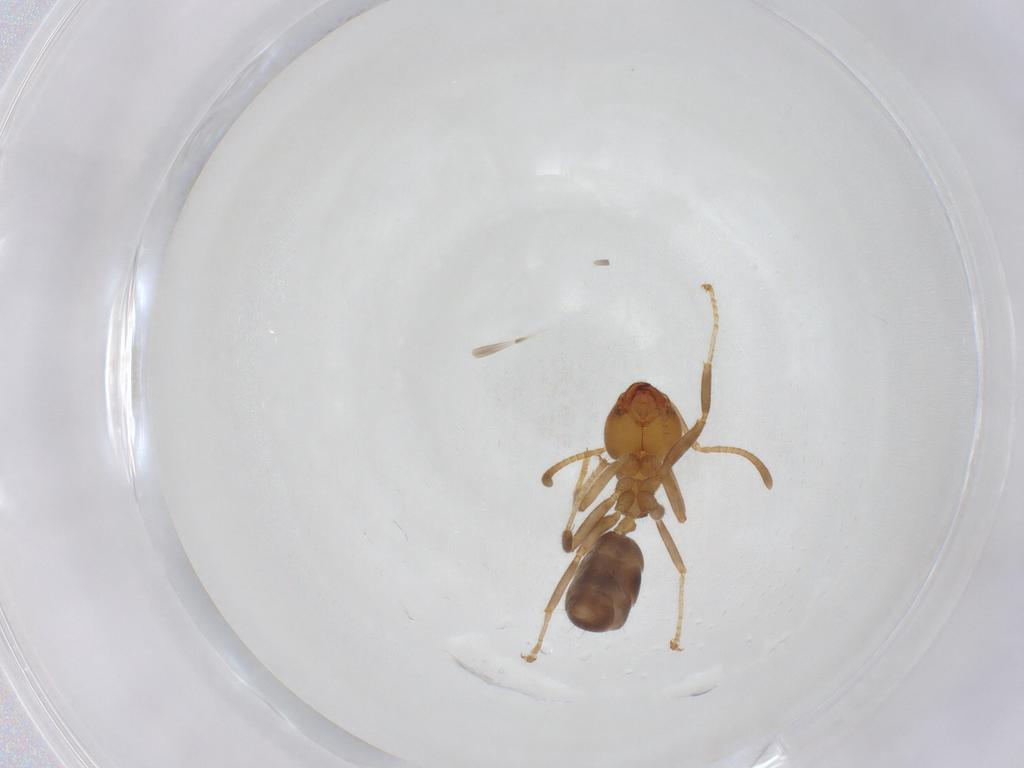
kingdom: Animalia
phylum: Arthropoda
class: Insecta
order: Hymenoptera
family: Formicidae
